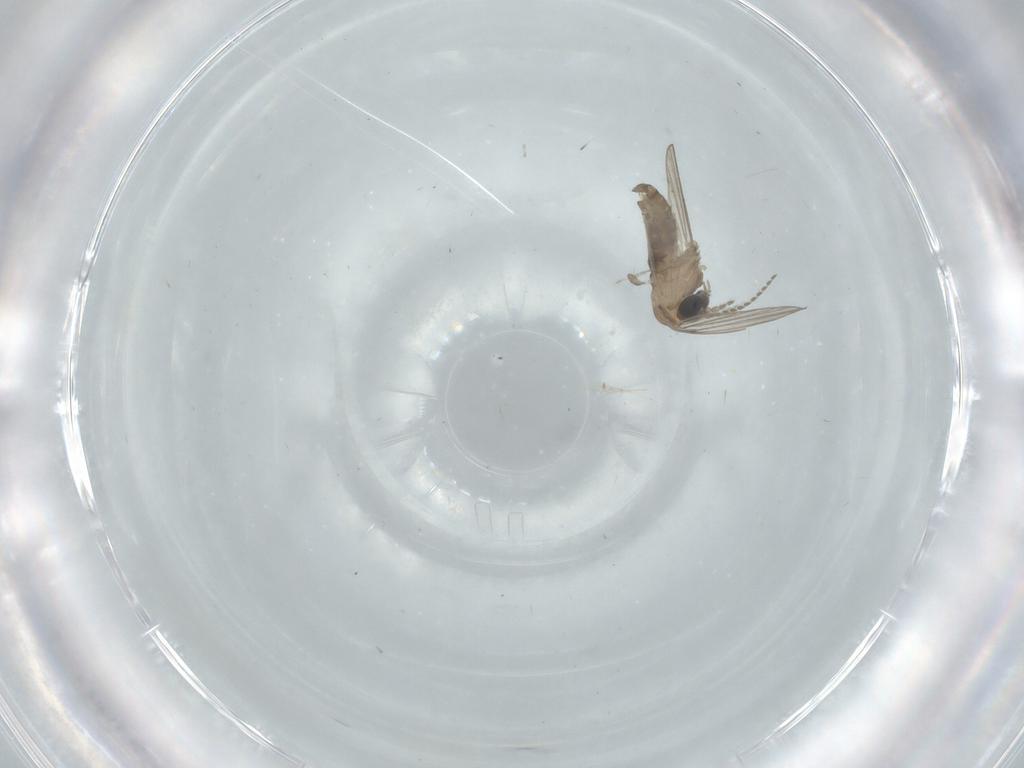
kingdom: Animalia
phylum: Arthropoda
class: Insecta
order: Diptera
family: Psychodidae
